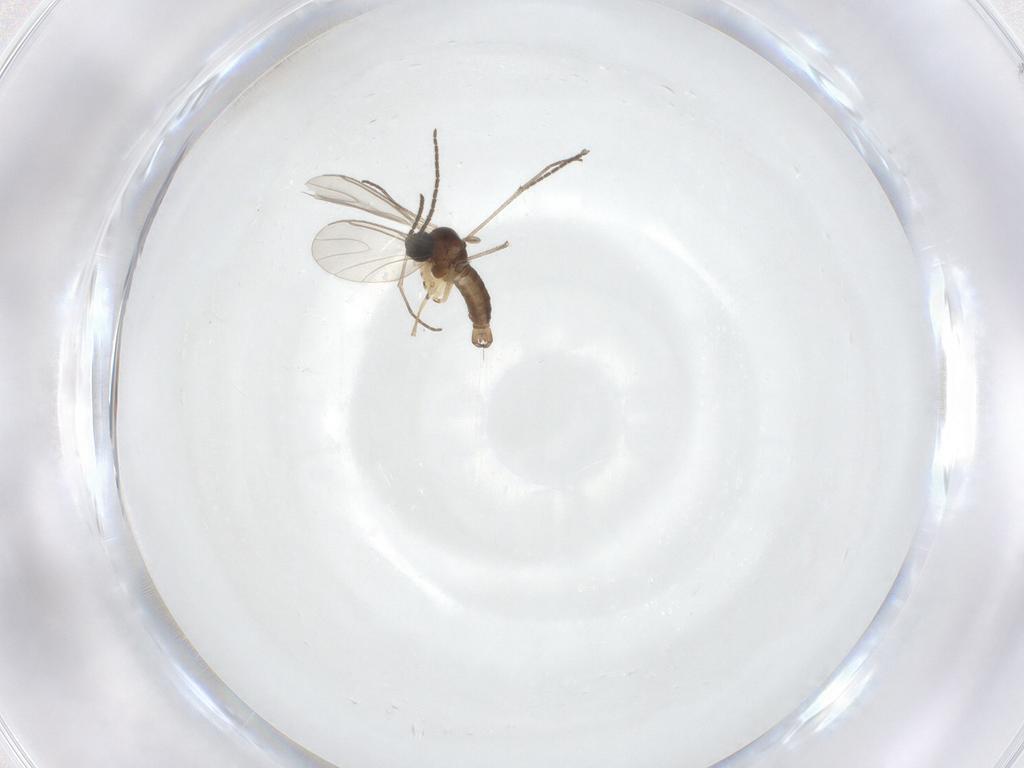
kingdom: Animalia
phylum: Arthropoda
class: Insecta
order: Diptera
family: Sciaridae
